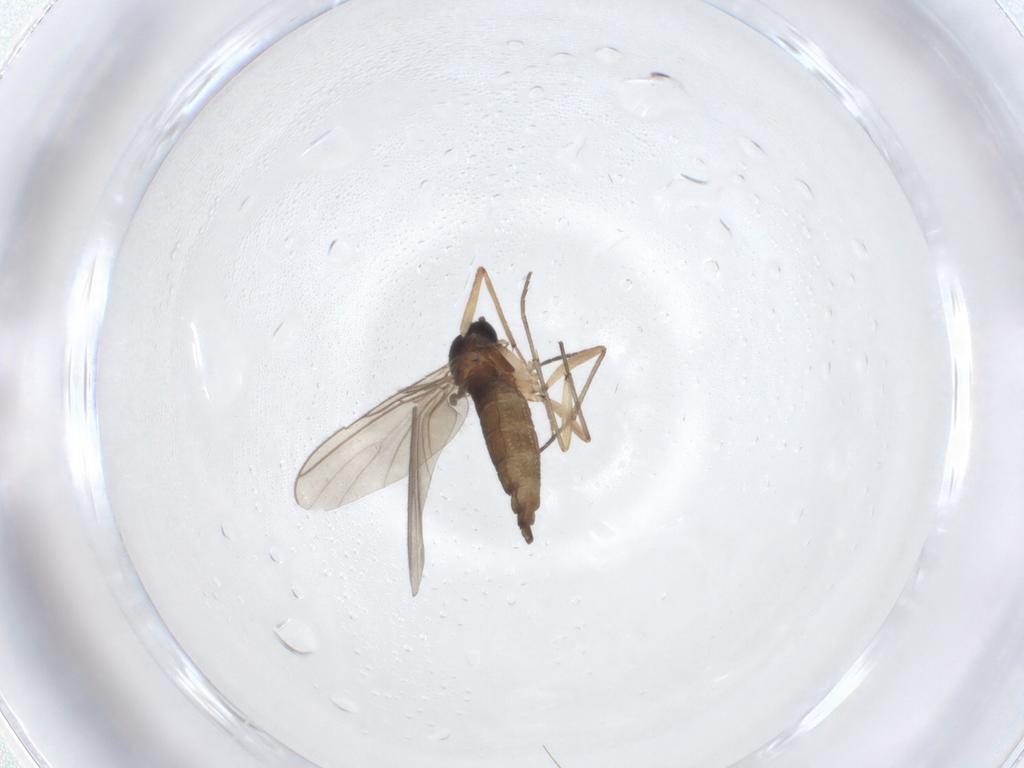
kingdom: Animalia
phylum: Arthropoda
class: Insecta
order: Diptera
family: Sciaridae
